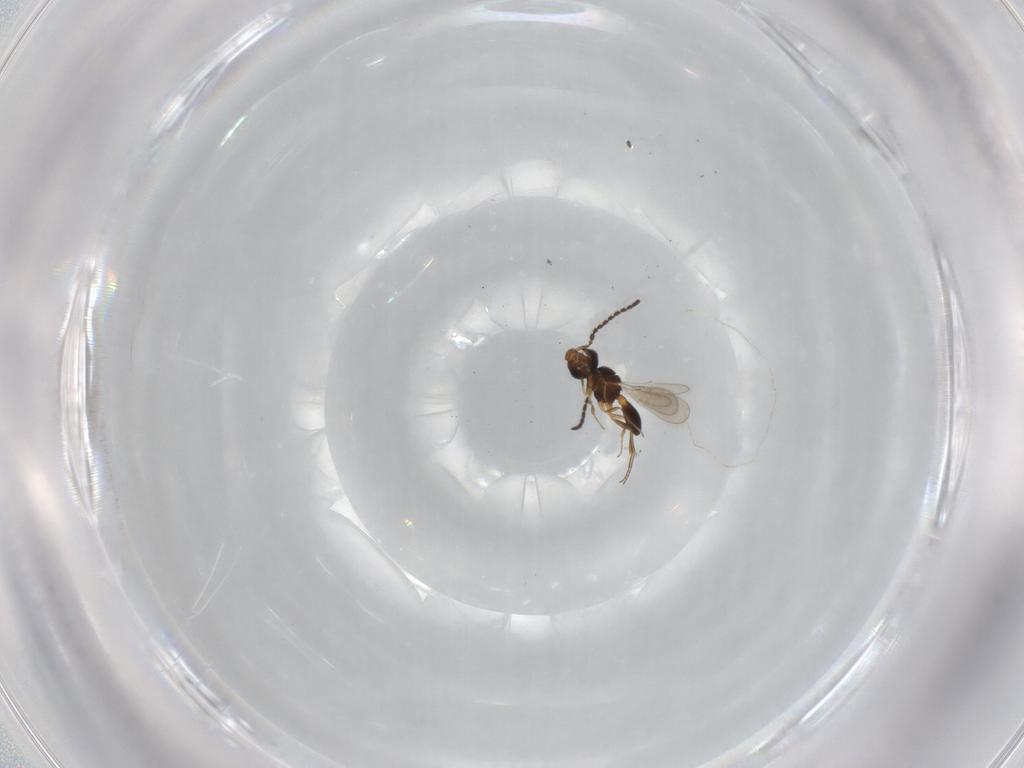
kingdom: Animalia
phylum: Arthropoda
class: Insecta
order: Hymenoptera
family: Scelionidae
